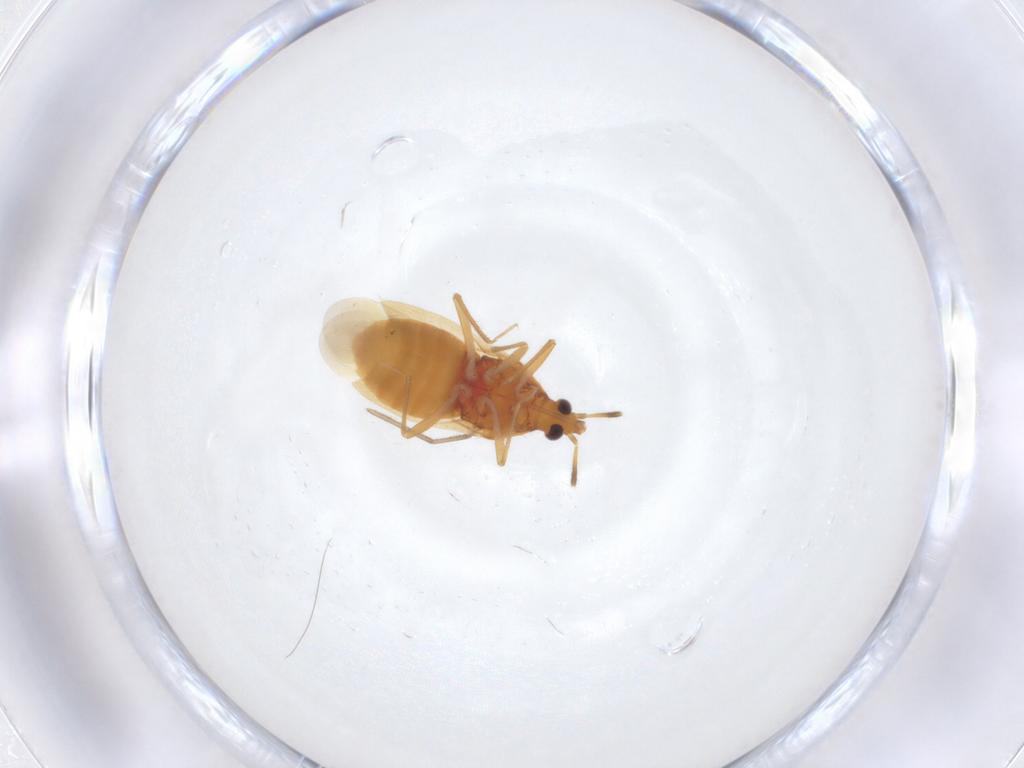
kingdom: Animalia
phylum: Arthropoda
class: Insecta
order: Hemiptera
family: Anthocoridae
